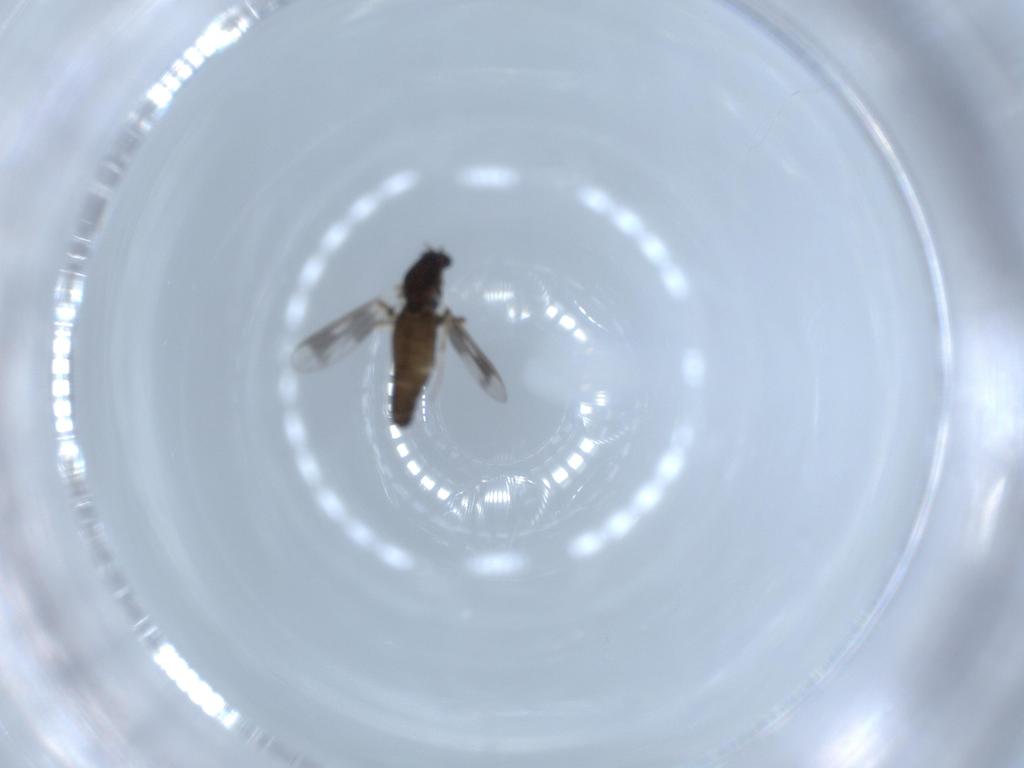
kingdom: Animalia
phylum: Arthropoda
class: Insecta
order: Diptera
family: Chironomidae
